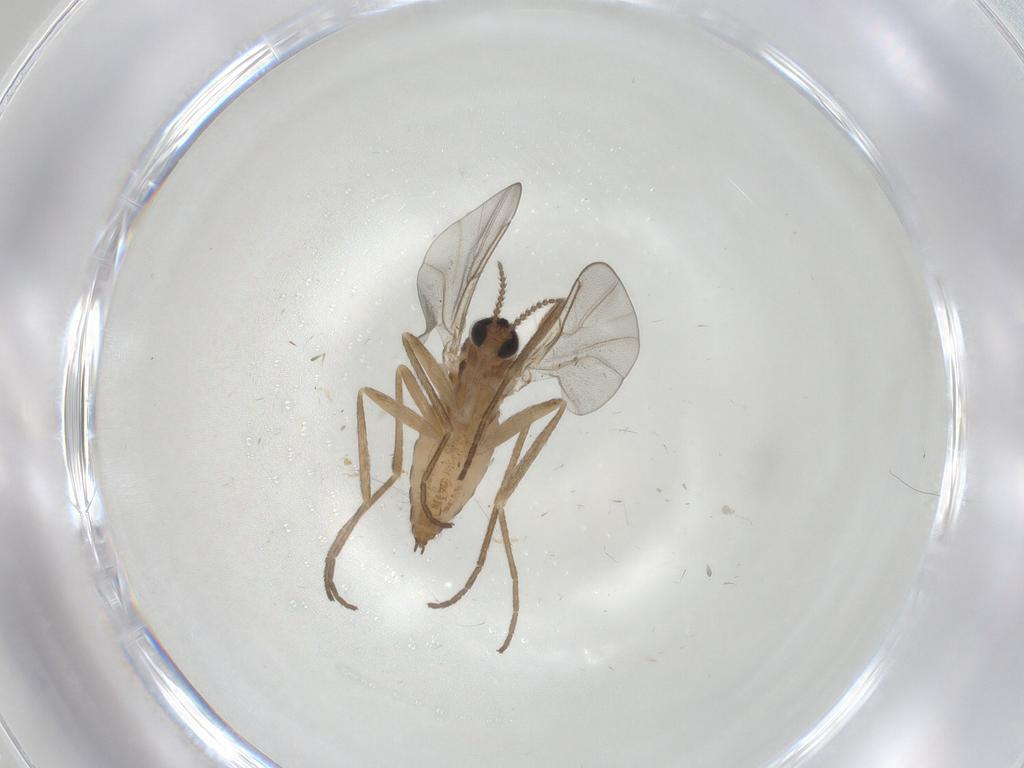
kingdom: Animalia
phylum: Arthropoda
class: Insecta
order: Diptera
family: Cecidomyiidae
